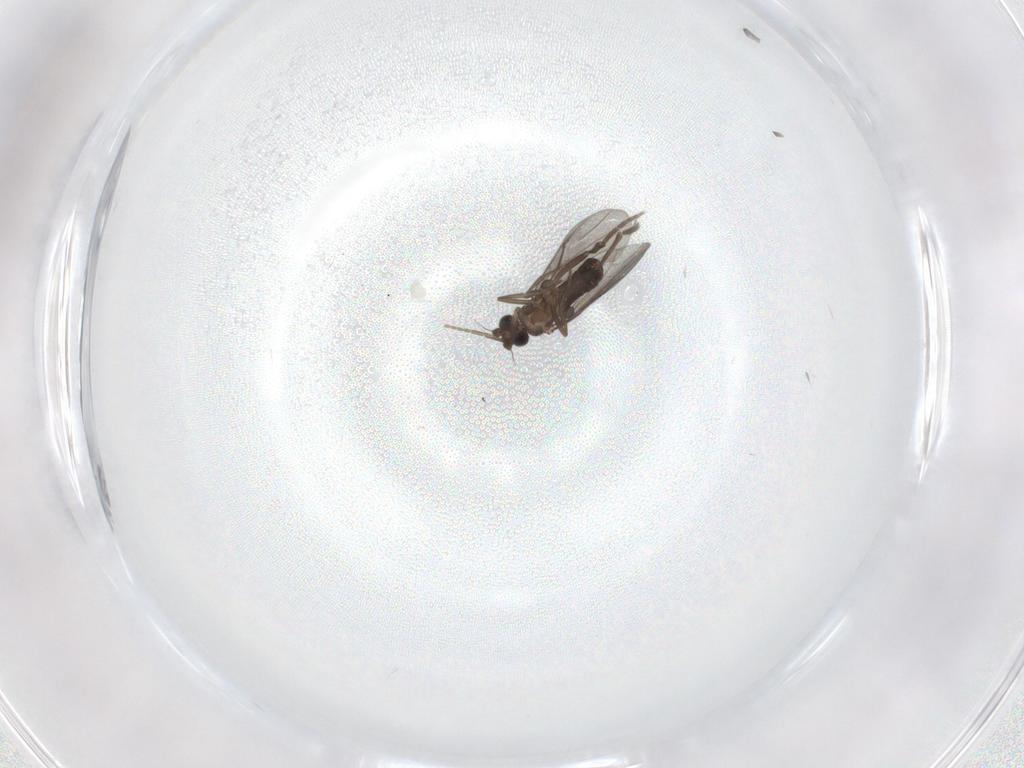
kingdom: Animalia
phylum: Arthropoda
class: Insecta
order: Diptera
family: Phoridae
